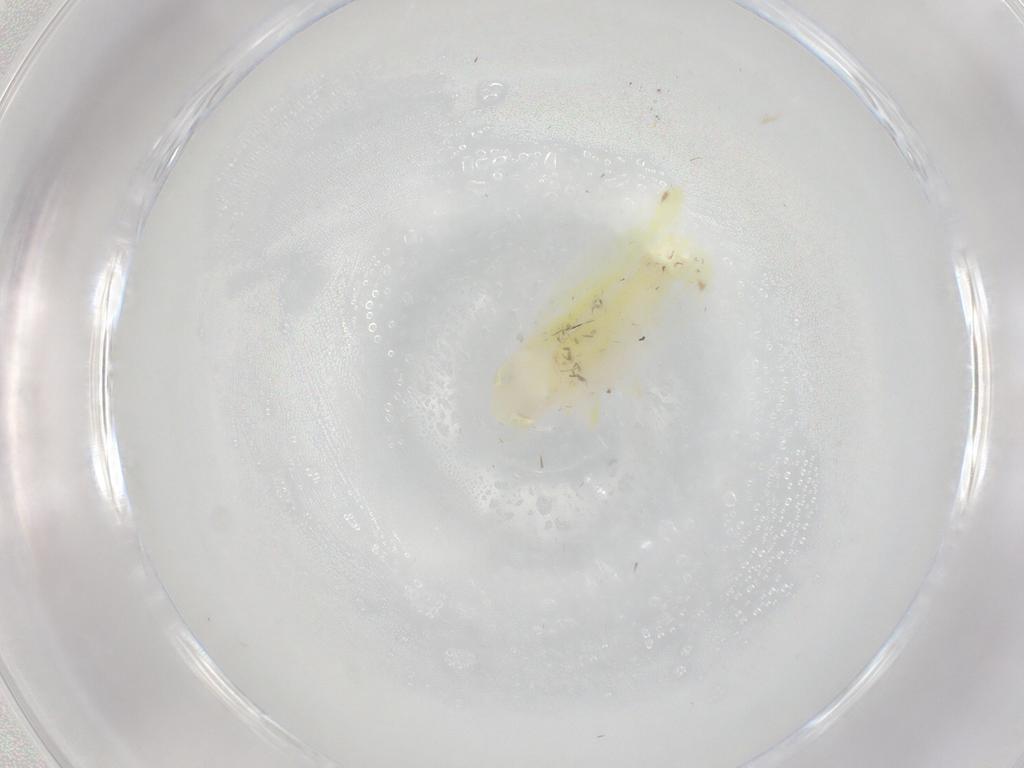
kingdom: Animalia
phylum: Arthropoda
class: Insecta
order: Hemiptera
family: Cicadellidae
